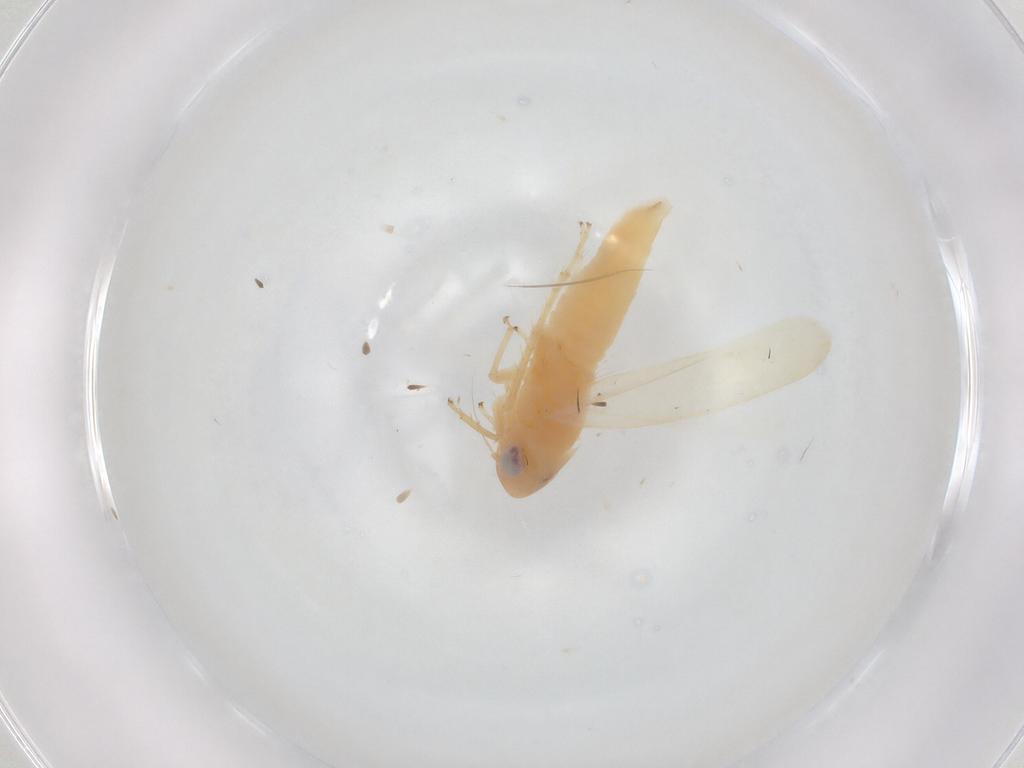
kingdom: Animalia
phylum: Arthropoda
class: Insecta
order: Hemiptera
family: Cicadellidae
